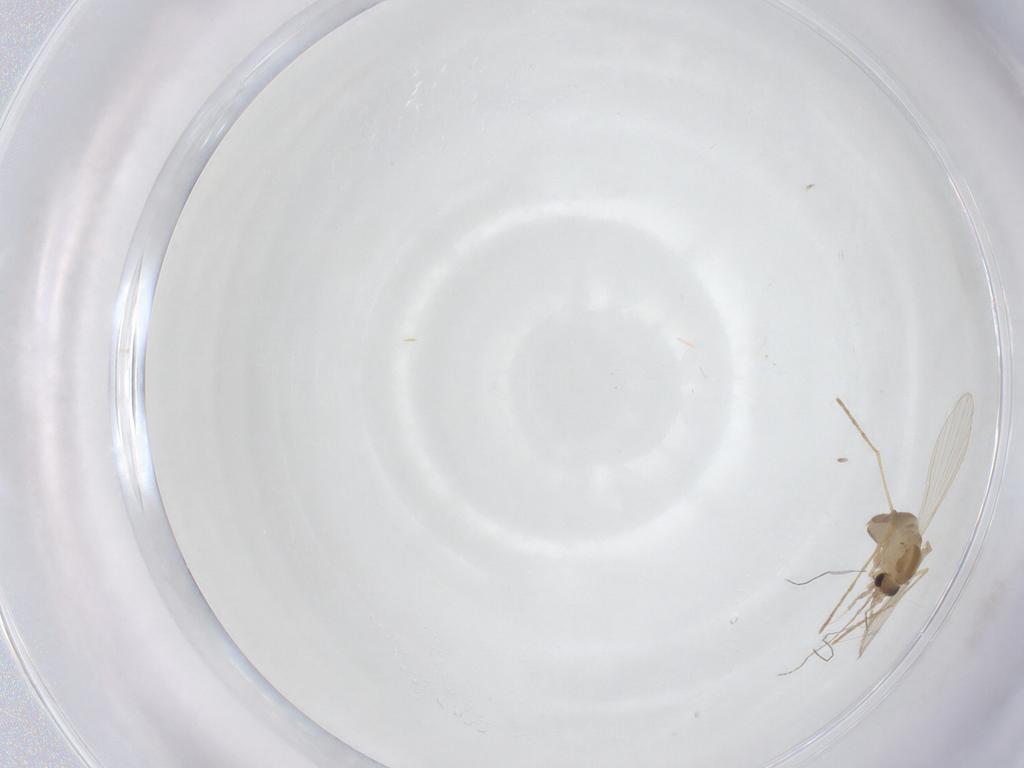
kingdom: Animalia
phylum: Arthropoda
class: Insecta
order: Diptera
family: Psychodidae
